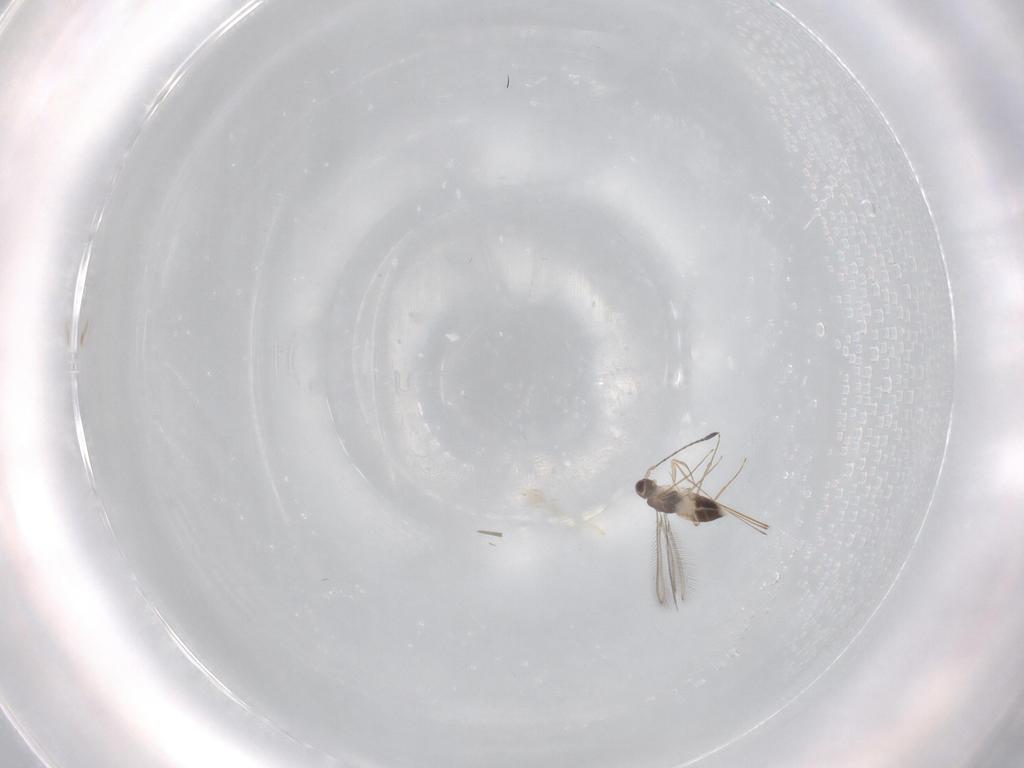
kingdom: Animalia
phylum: Arthropoda
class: Insecta
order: Hymenoptera
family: Mymaridae
